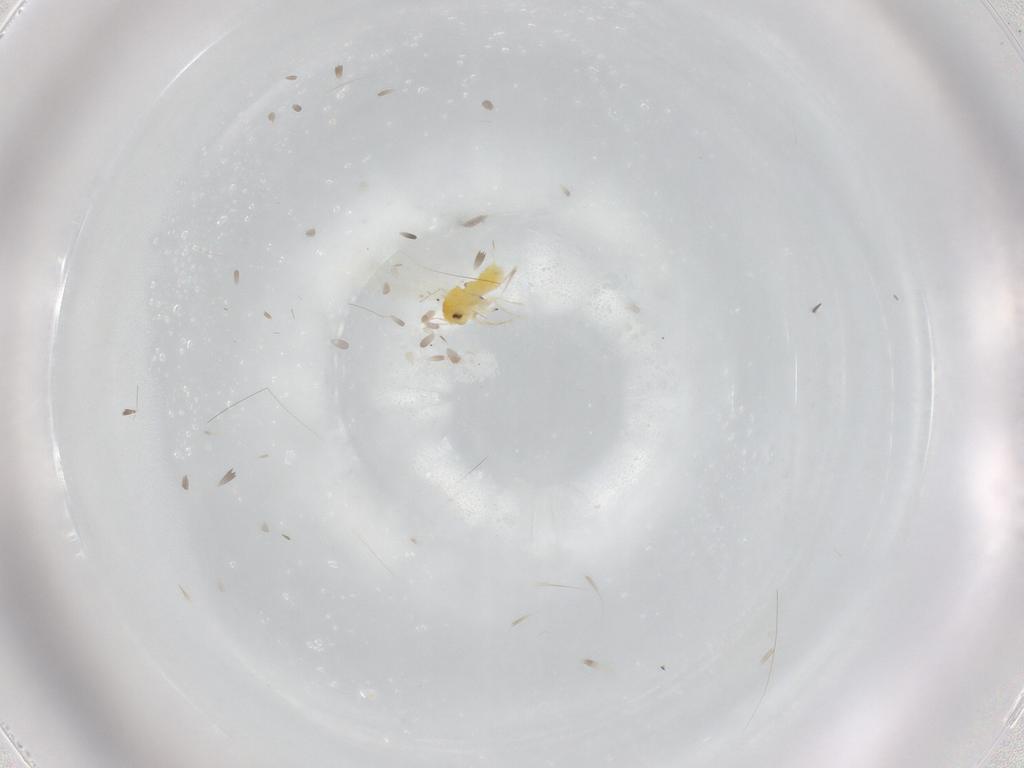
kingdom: Animalia
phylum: Arthropoda
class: Insecta
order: Hemiptera
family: Aleyrodidae
